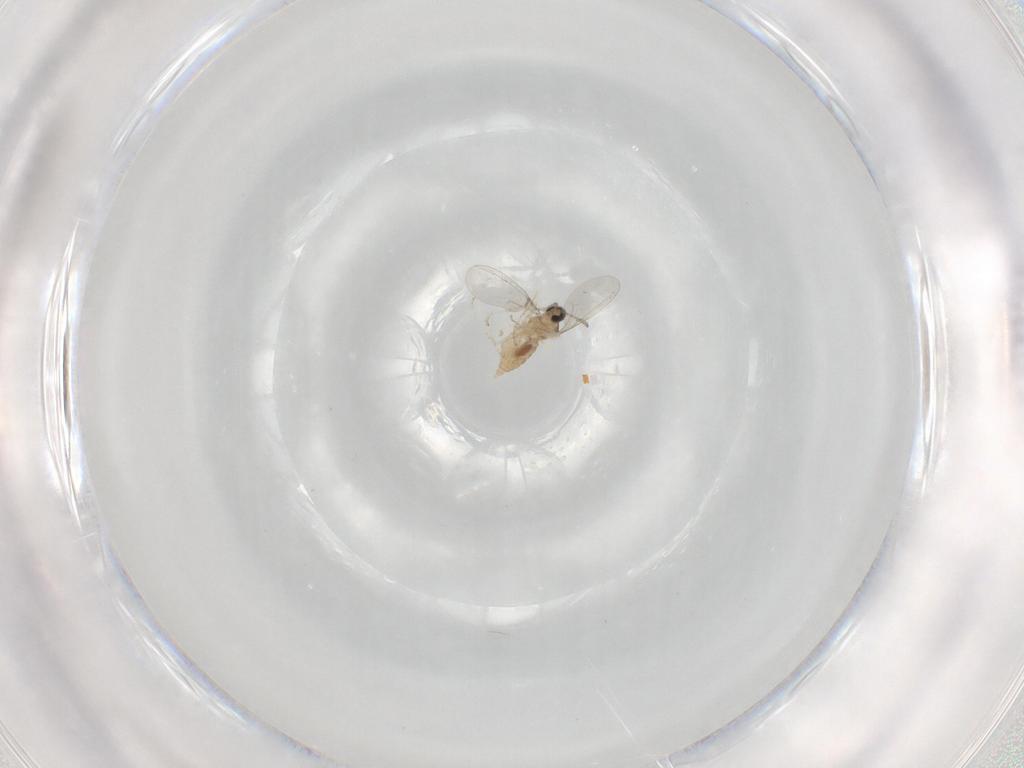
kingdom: Animalia
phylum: Arthropoda
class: Insecta
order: Diptera
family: Cecidomyiidae
